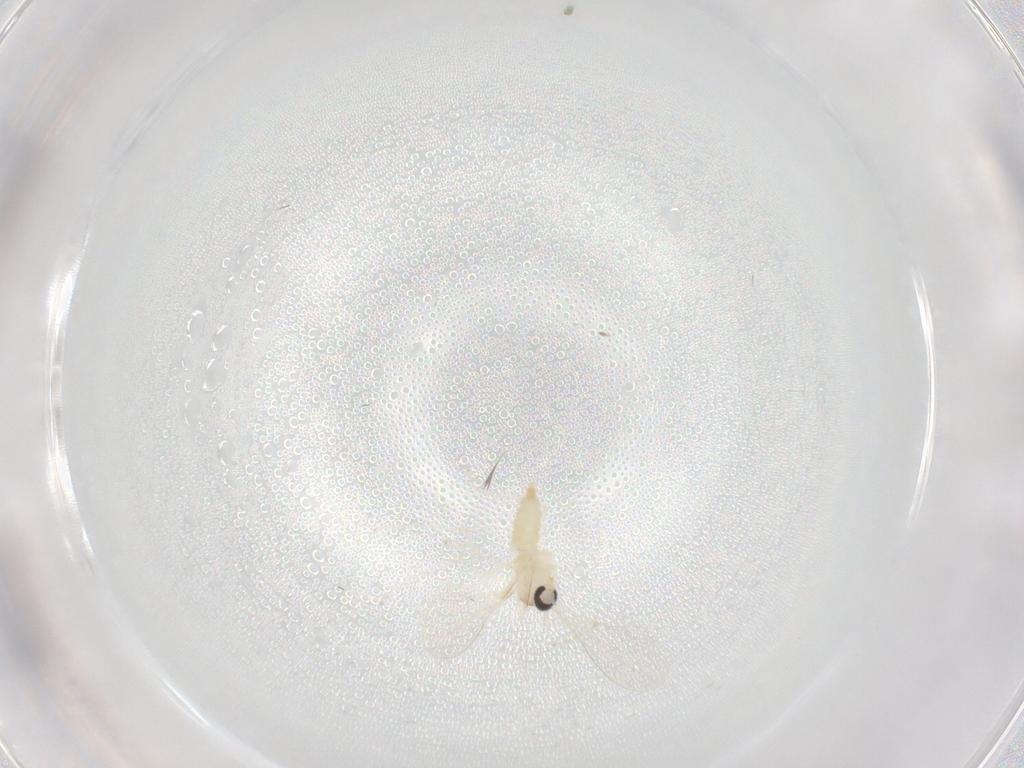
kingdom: Animalia
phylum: Arthropoda
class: Insecta
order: Diptera
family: Cecidomyiidae
